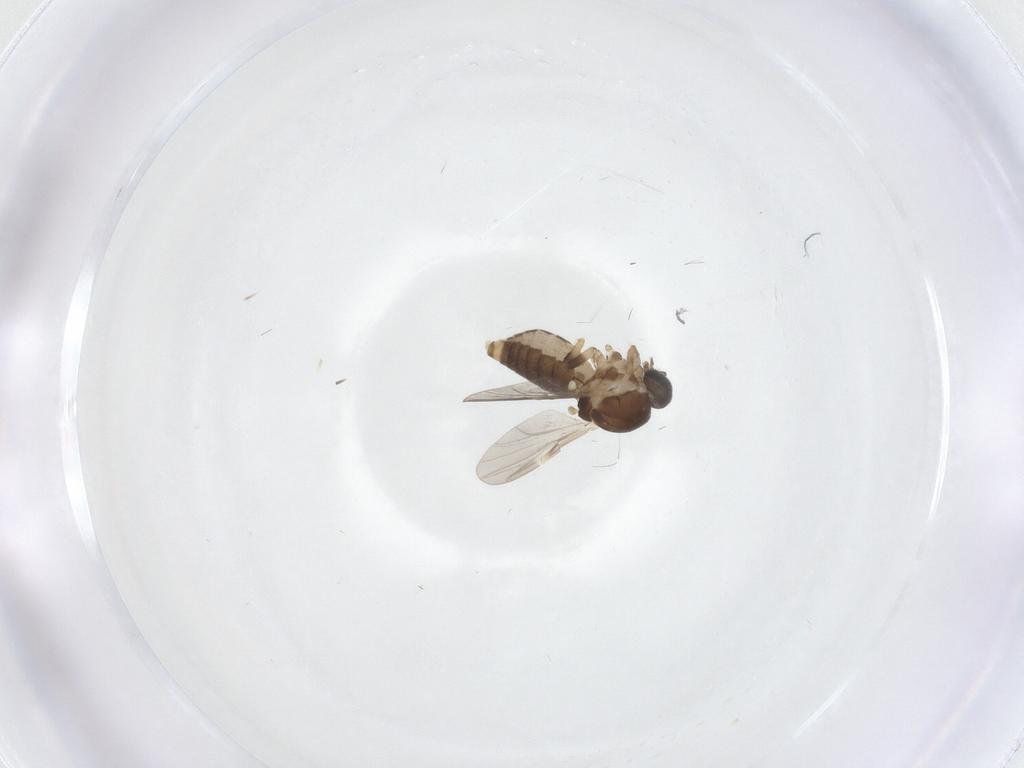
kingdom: Animalia
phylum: Arthropoda
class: Insecta
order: Diptera
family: Ceratopogonidae
